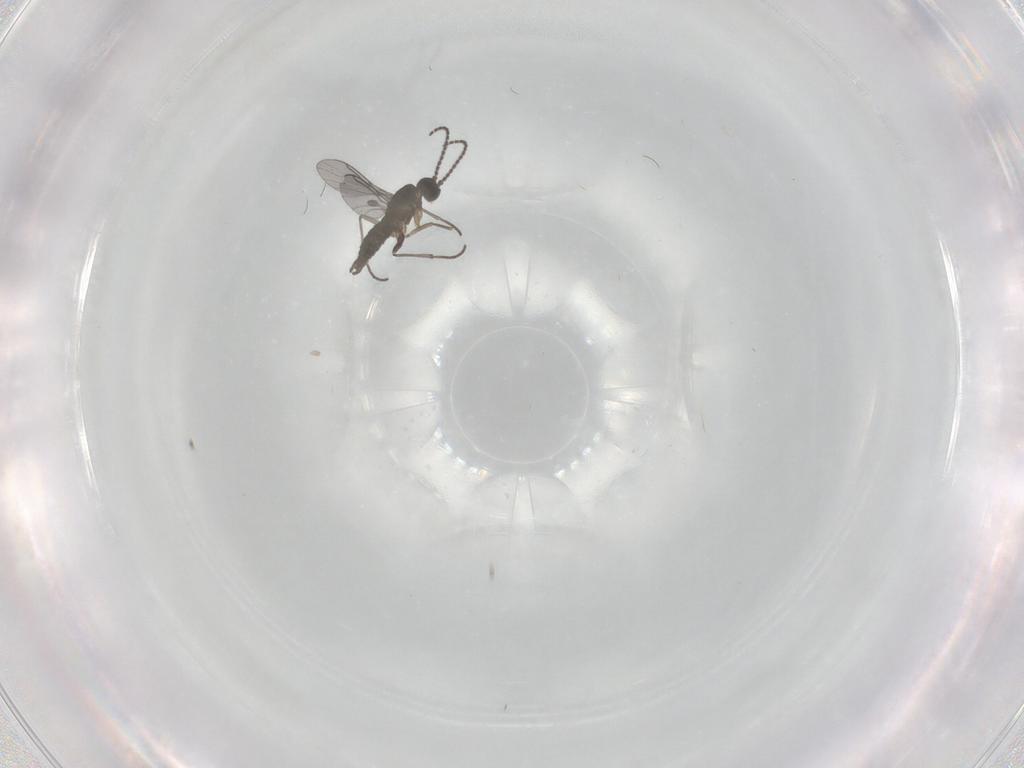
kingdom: Animalia
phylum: Arthropoda
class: Insecta
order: Diptera
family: Sciaridae
